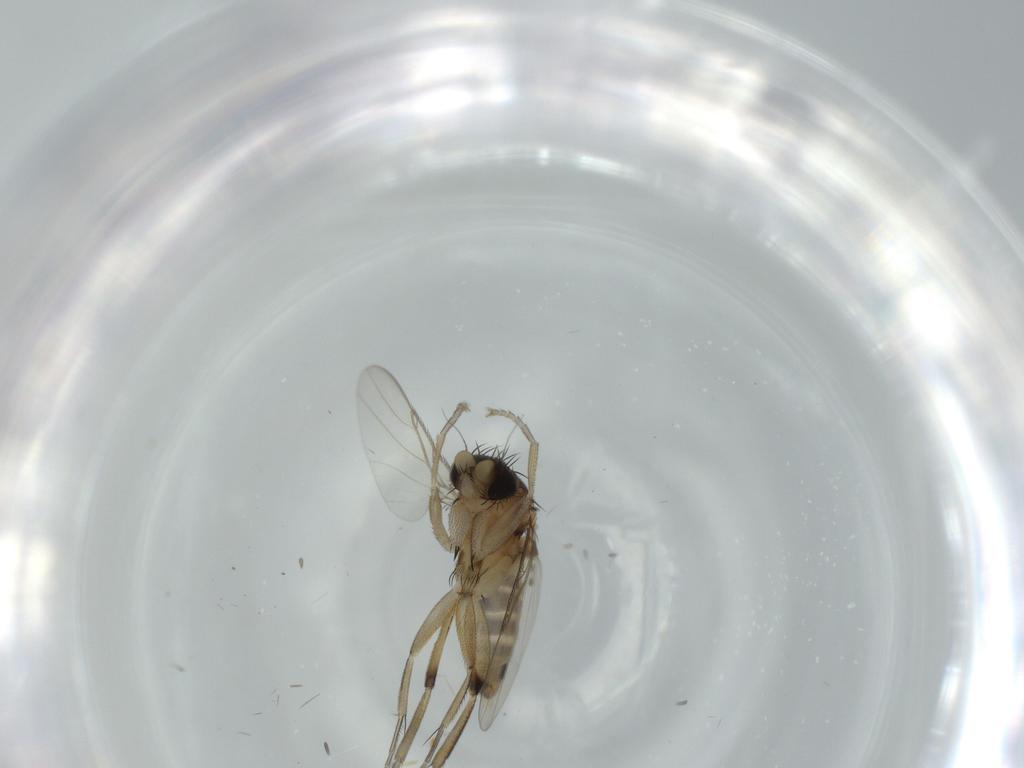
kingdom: Animalia
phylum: Arthropoda
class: Insecta
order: Diptera
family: Phoridae
